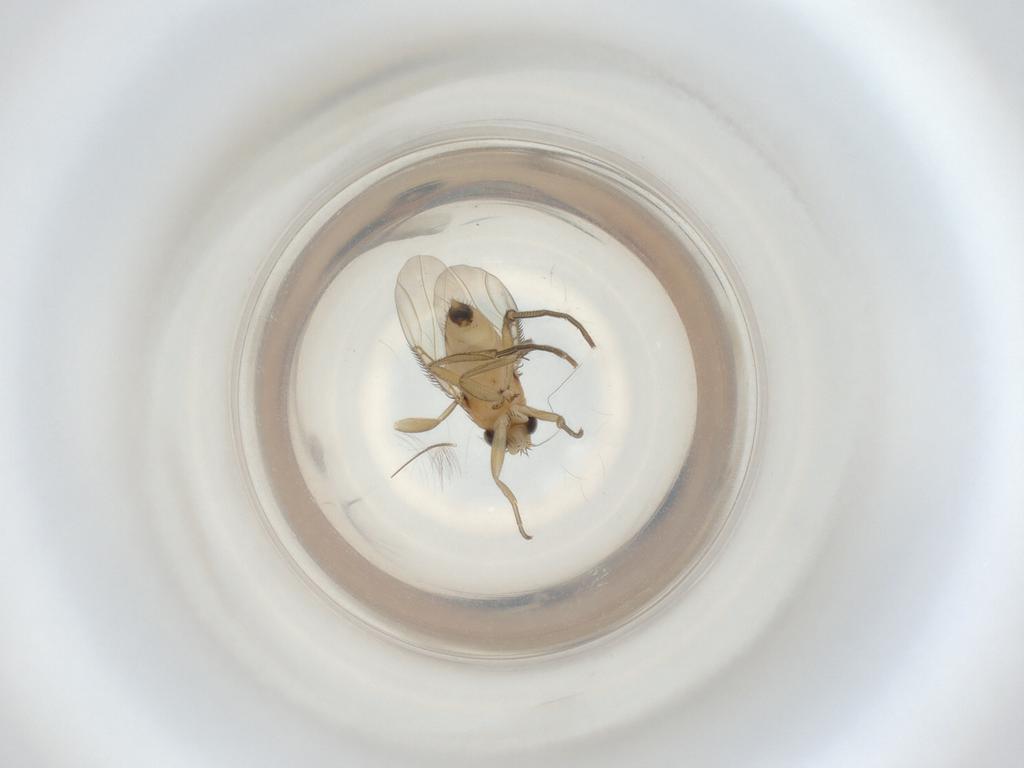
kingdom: Animalia
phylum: Arthropoda
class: Insecta
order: Diptera
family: Phoridae
